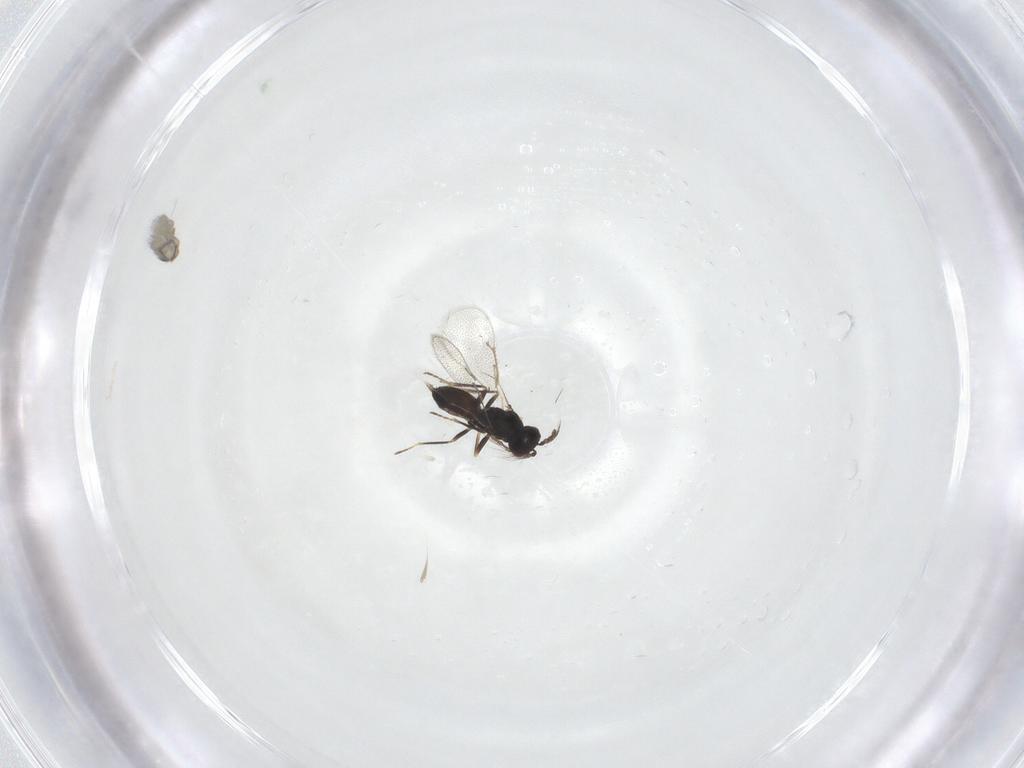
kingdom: Animalia
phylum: Arthropoda
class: Insecta
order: Hymenoptera
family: Eulophidae
